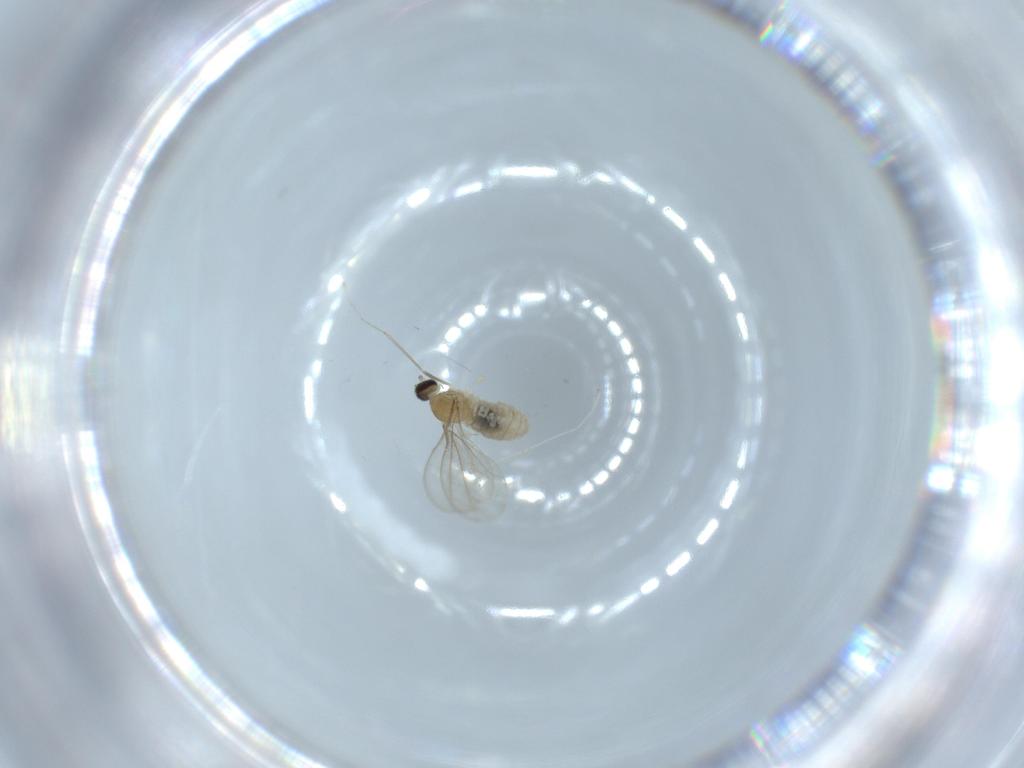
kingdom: Animalia
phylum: Arthropoda
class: Insecta
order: Diptera
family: Cecidomyiidae
